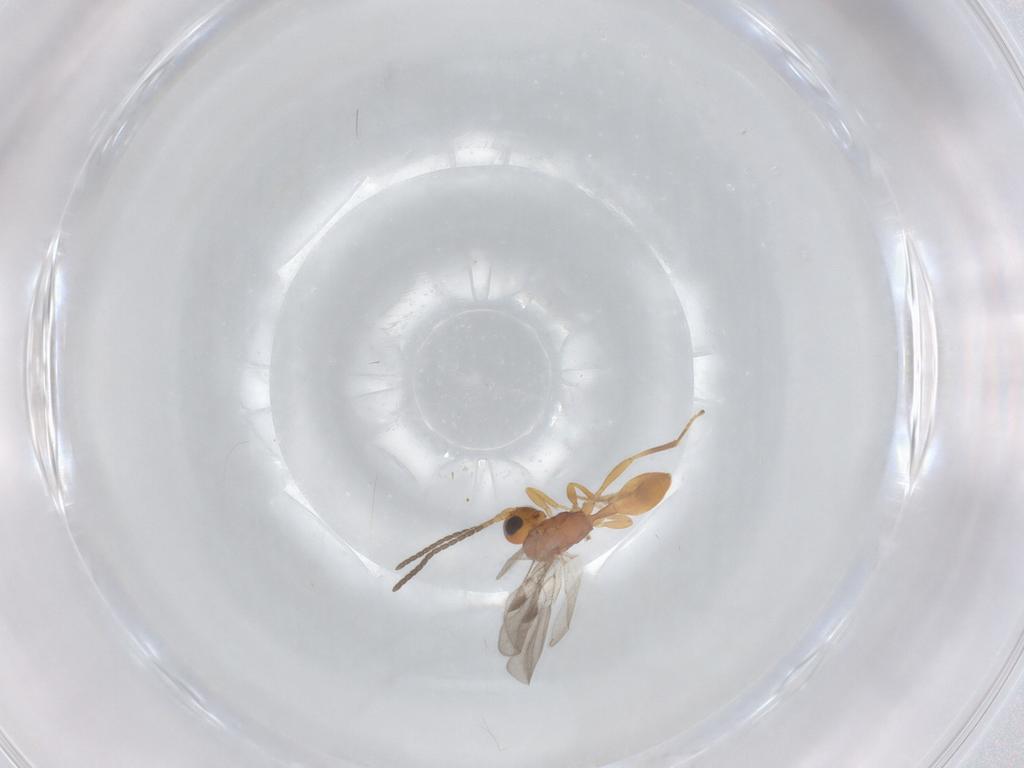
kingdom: Animalia
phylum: Arthropoda
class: Insecta
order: Hymenoptera
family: Braconidae
